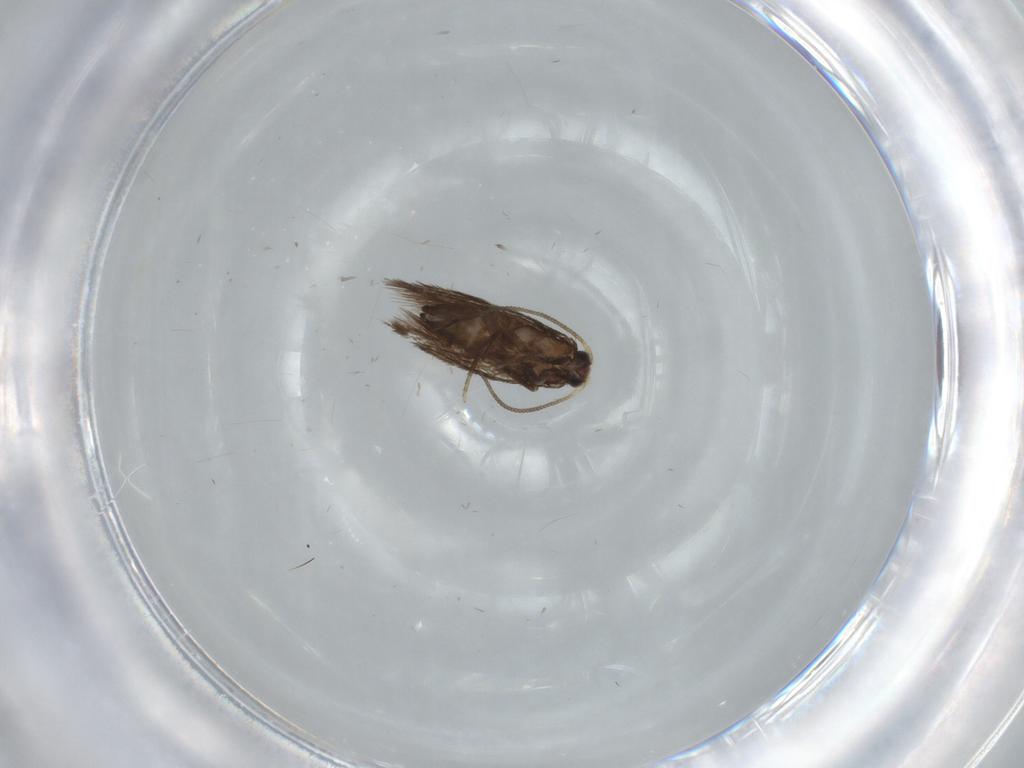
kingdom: Animalia
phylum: Arthropoda
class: Insecta
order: Lepidoptera
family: Nepticulidae
